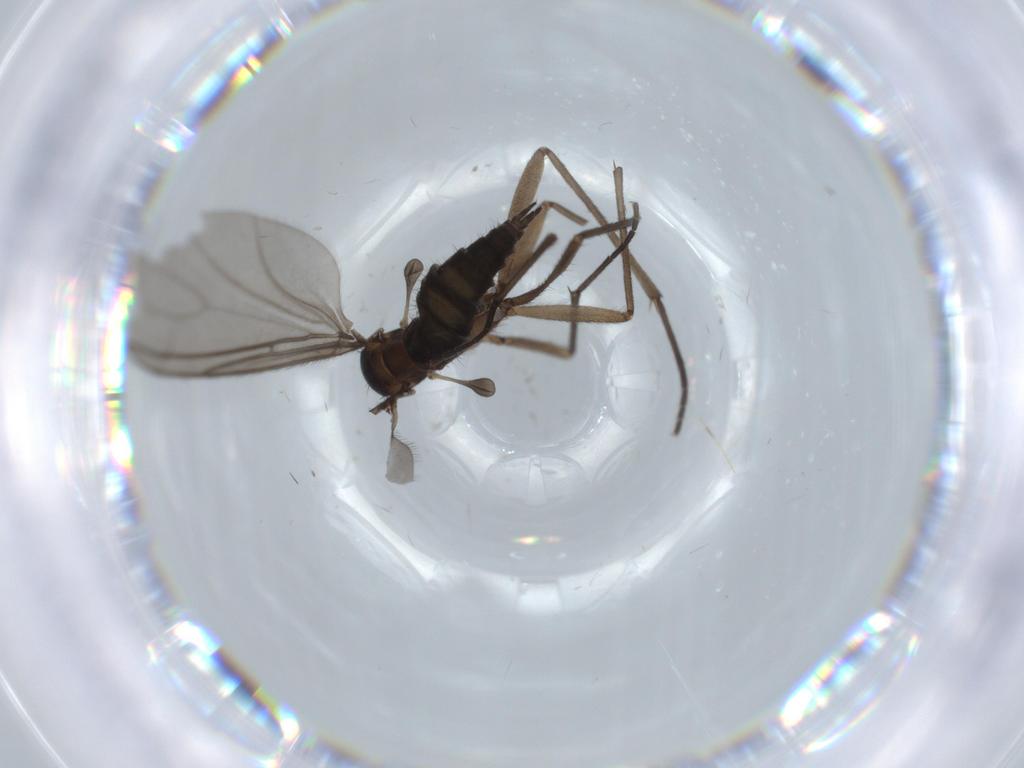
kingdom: Animalia
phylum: Arthropoda
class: Insecta
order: Diptera
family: Sciaridae
